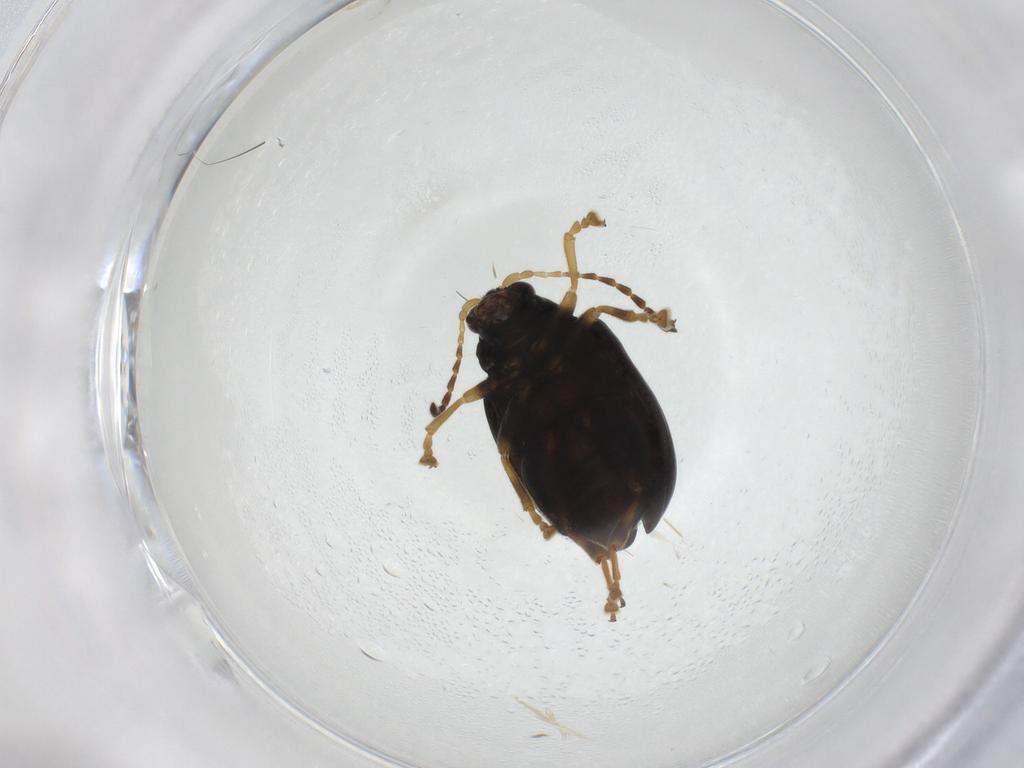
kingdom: Animalia
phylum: Arthropoda
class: Insecta
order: Coleoptera
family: Chrysomelidae
